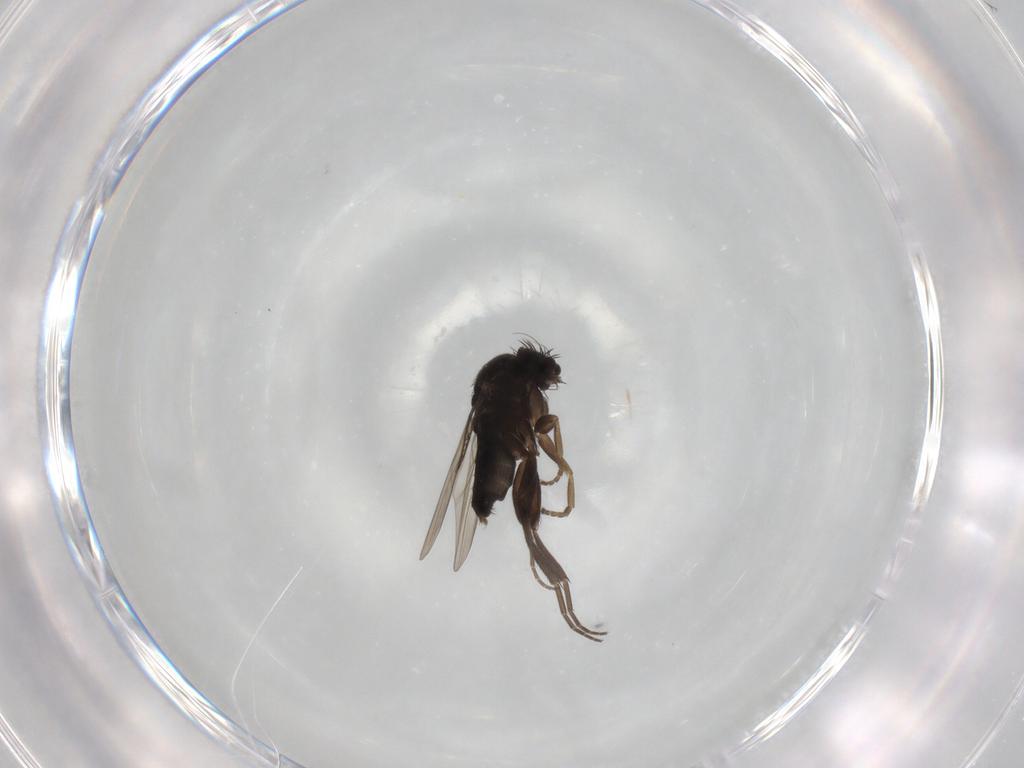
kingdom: Animalia
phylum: Arthropoda
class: Insecta
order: Diptera
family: Phoridae
